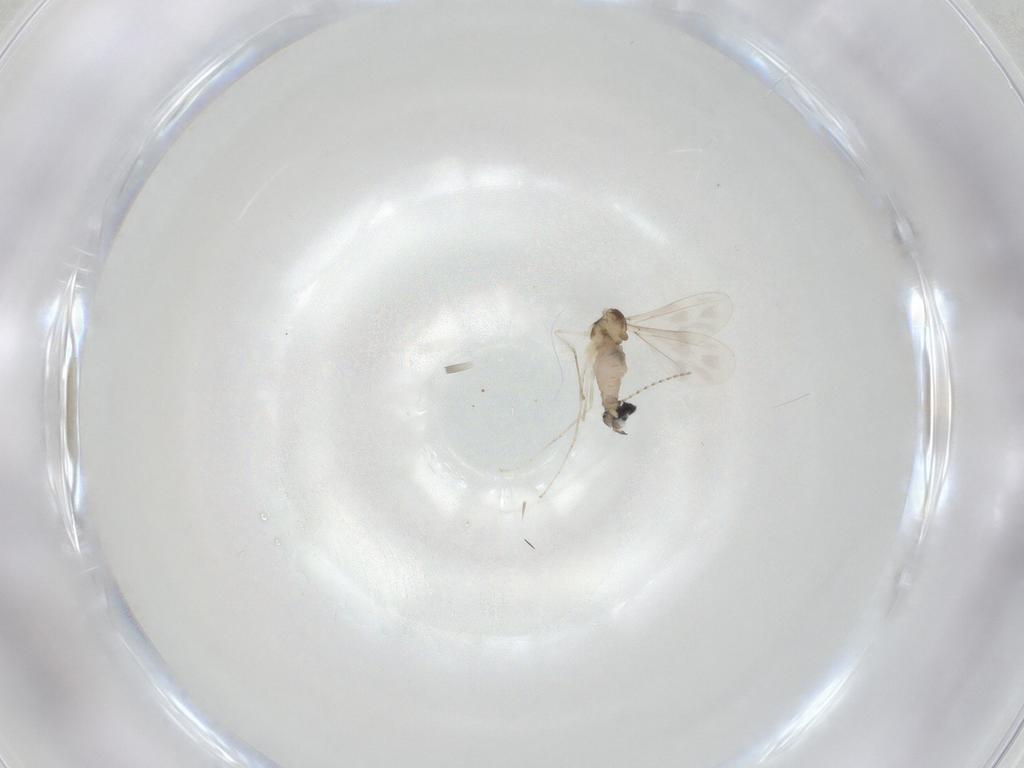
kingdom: Animalia
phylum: Arthropoda
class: Insecta
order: Diptera
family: Cecidomyiidae
